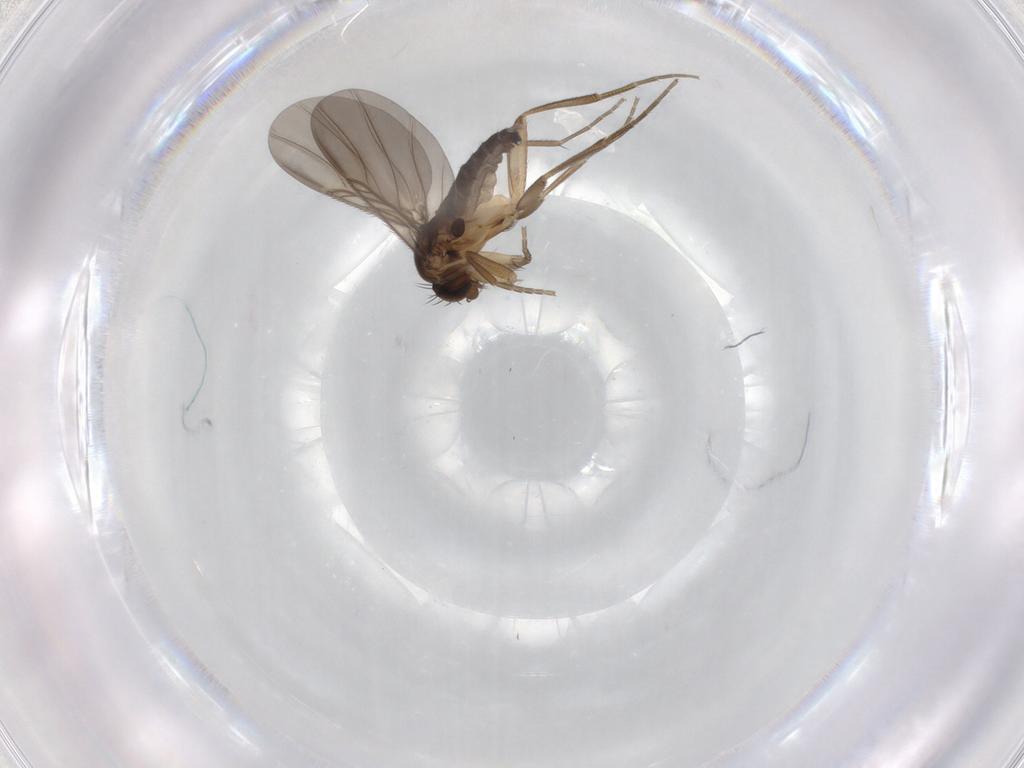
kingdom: Animalia
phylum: Arthropoda
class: Insecta
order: Diptera
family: Phoridae
